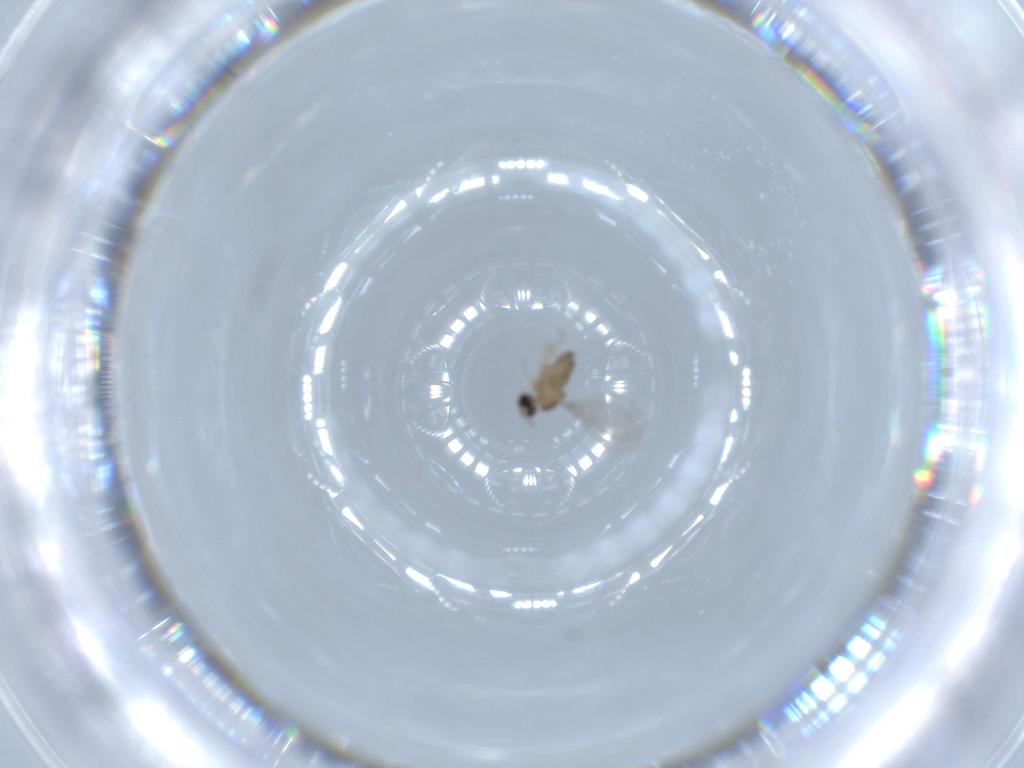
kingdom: Animalia
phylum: Arthropoda
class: Insecta
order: Diptera
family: Cecidomyiidae
